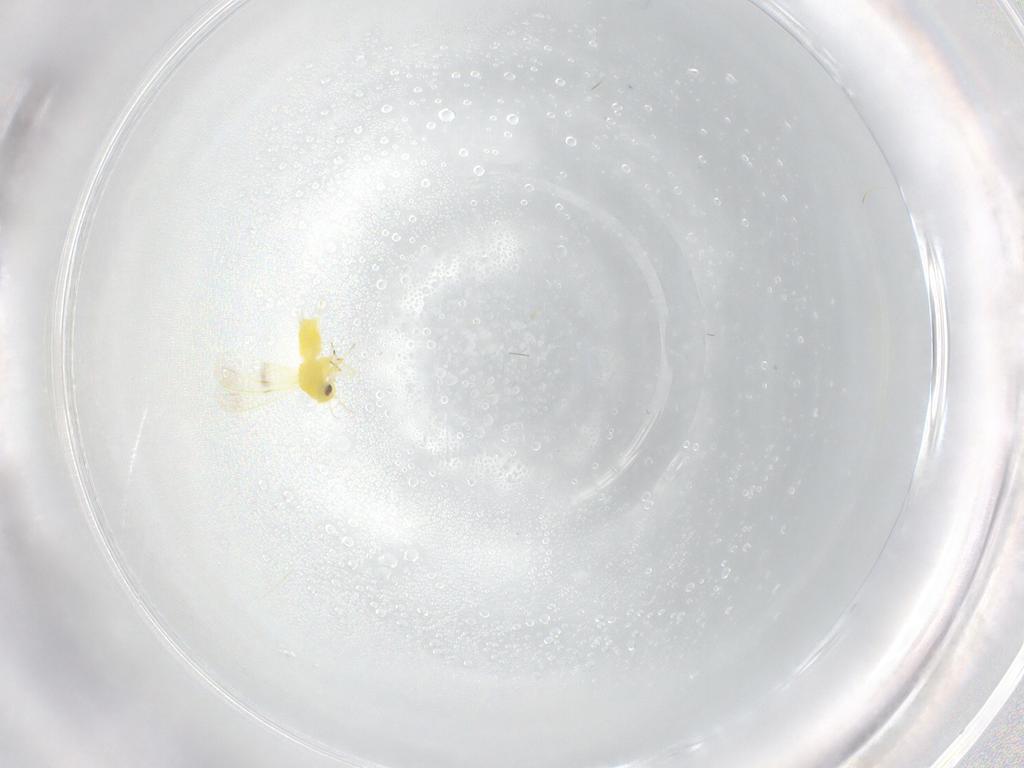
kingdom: Animalia
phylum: Arthropoda
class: Insecta
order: Hemiptera
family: Aleyrodidae
